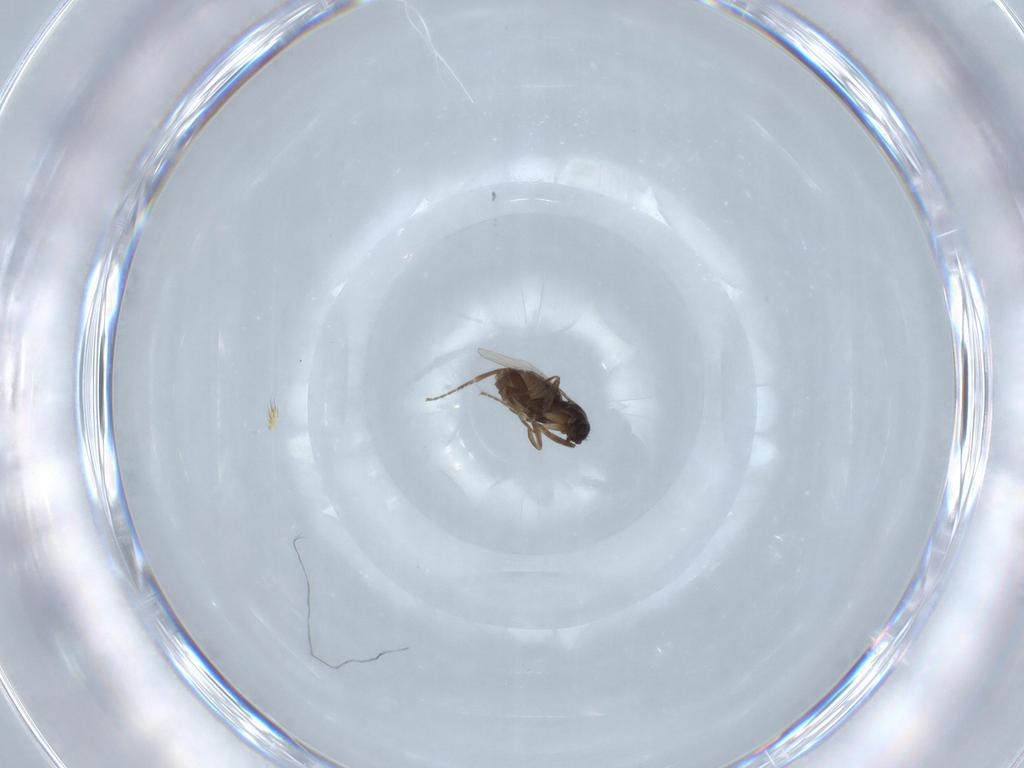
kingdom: Animalia
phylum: Arthropoda
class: Insecta
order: Diptera
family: Drosophilidae
